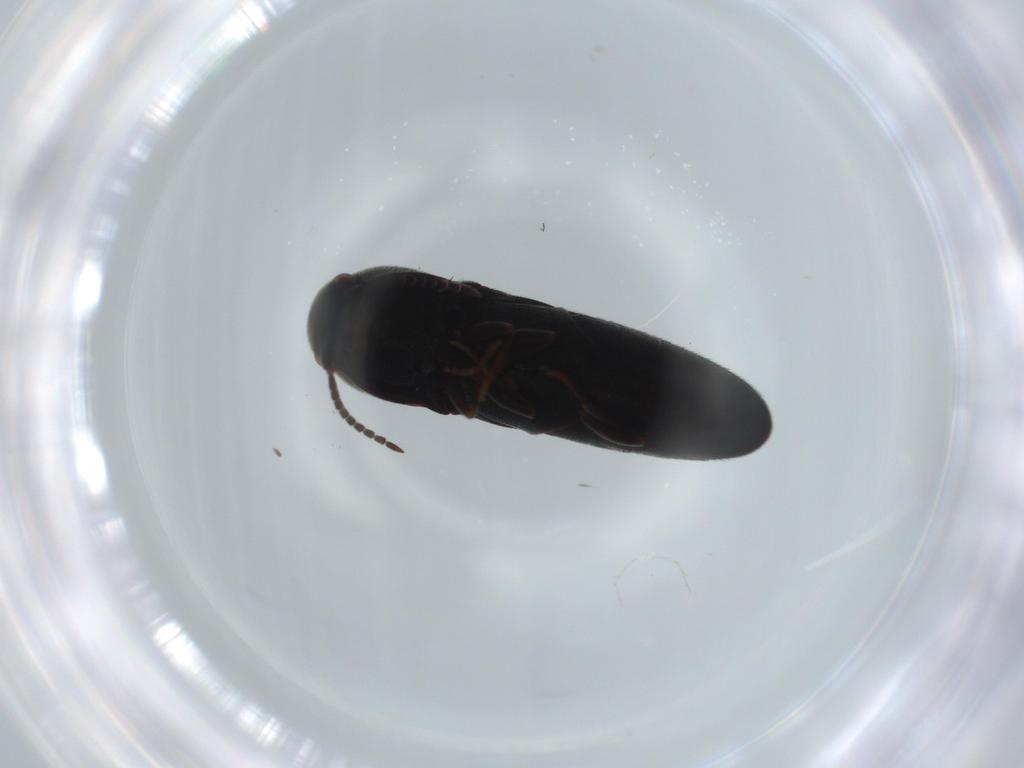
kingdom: Animalia
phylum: Arthropoda
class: Insecta
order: Coleoptera
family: Eucnemidae
